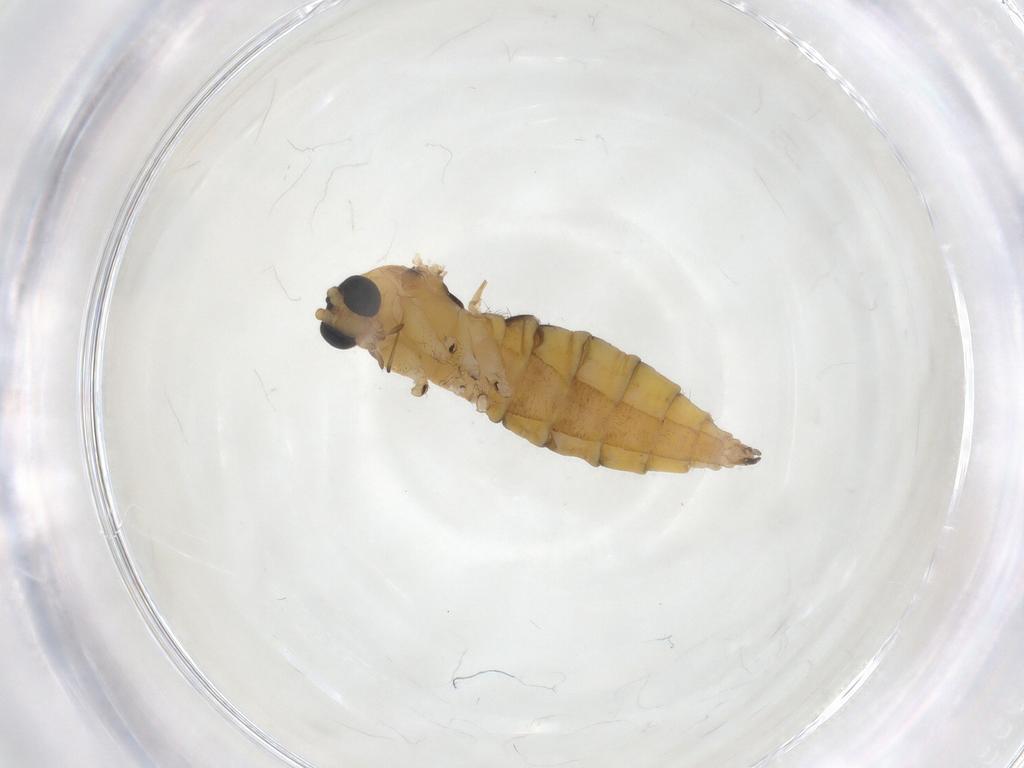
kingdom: Animalia
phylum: Arthropoda
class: Insecta
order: Diptera
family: Sciaridae
